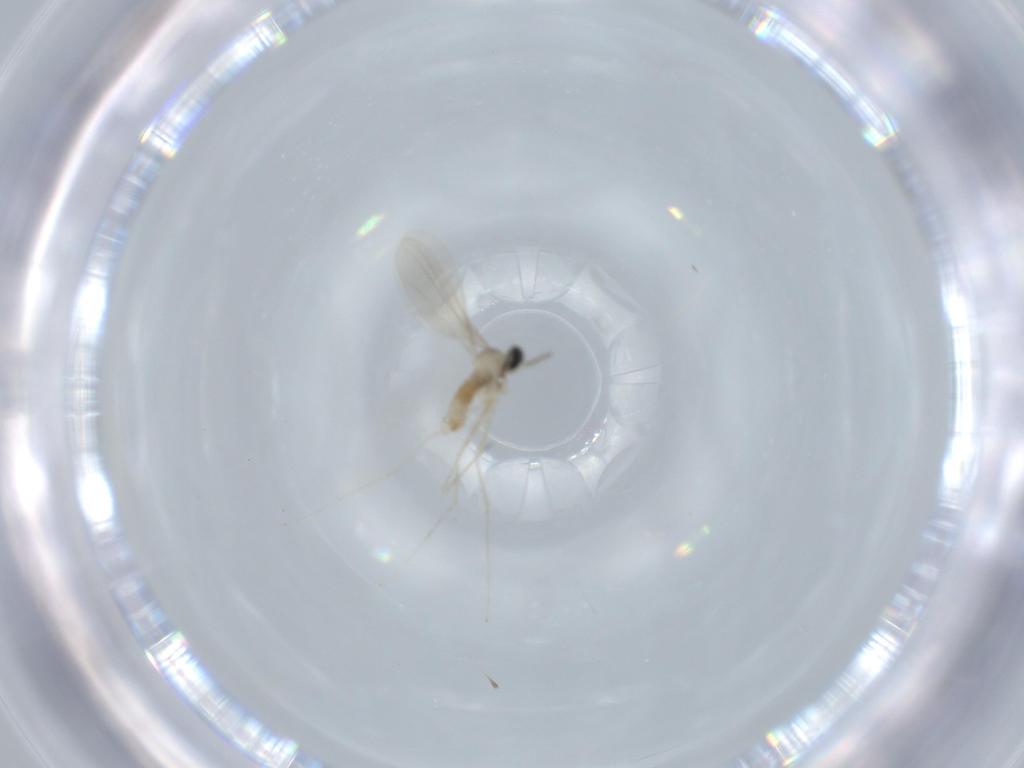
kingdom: Animalia
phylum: Arthropoda
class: Insecta
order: Diptera
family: Cecidomyiidae
